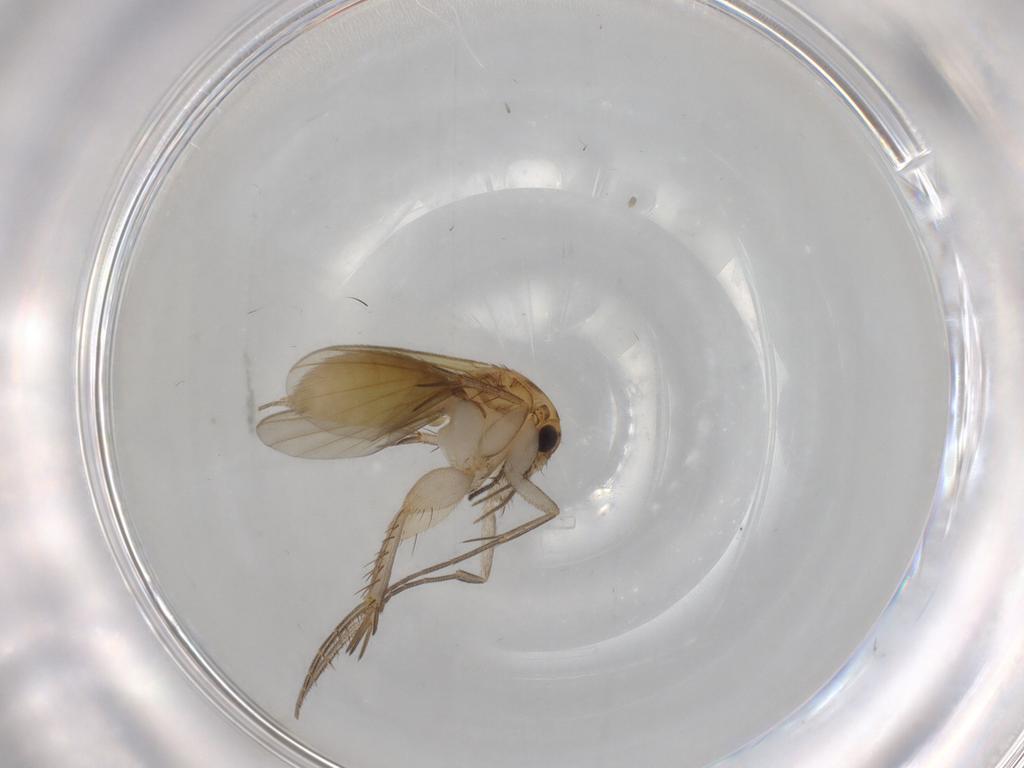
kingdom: Animalia
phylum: Arthropoda
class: Insecta
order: Diptera
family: Mycetophilidae
